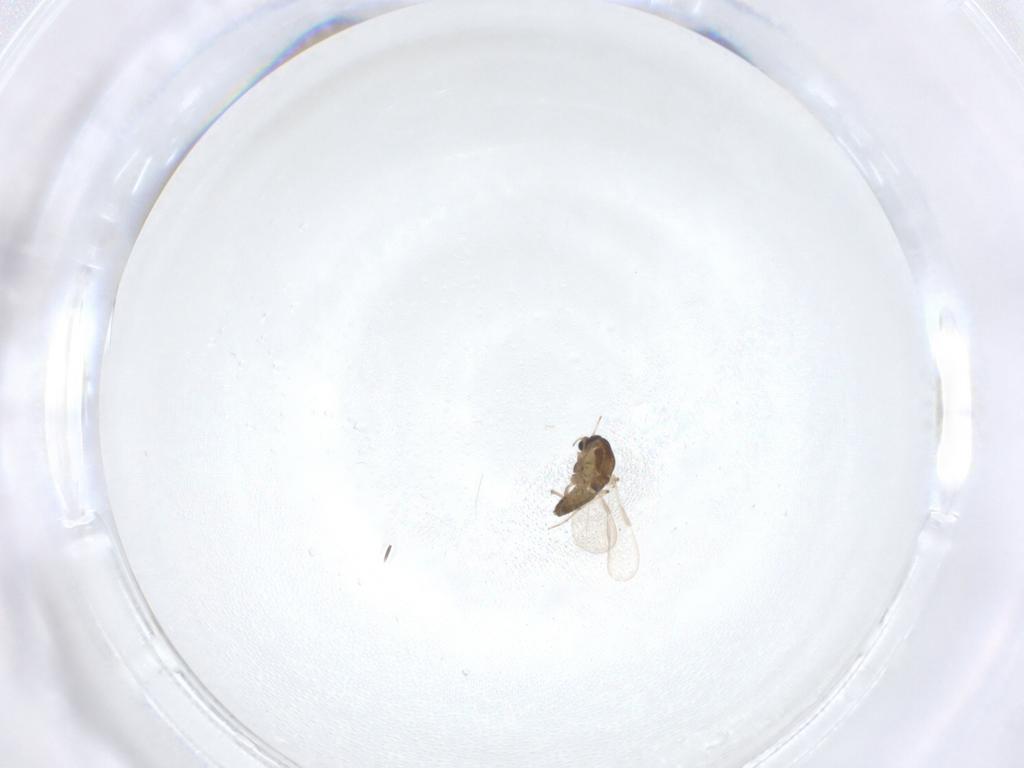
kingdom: Animalia
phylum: Arthropoda
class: Insecta
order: Diptera
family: Chironomidae
